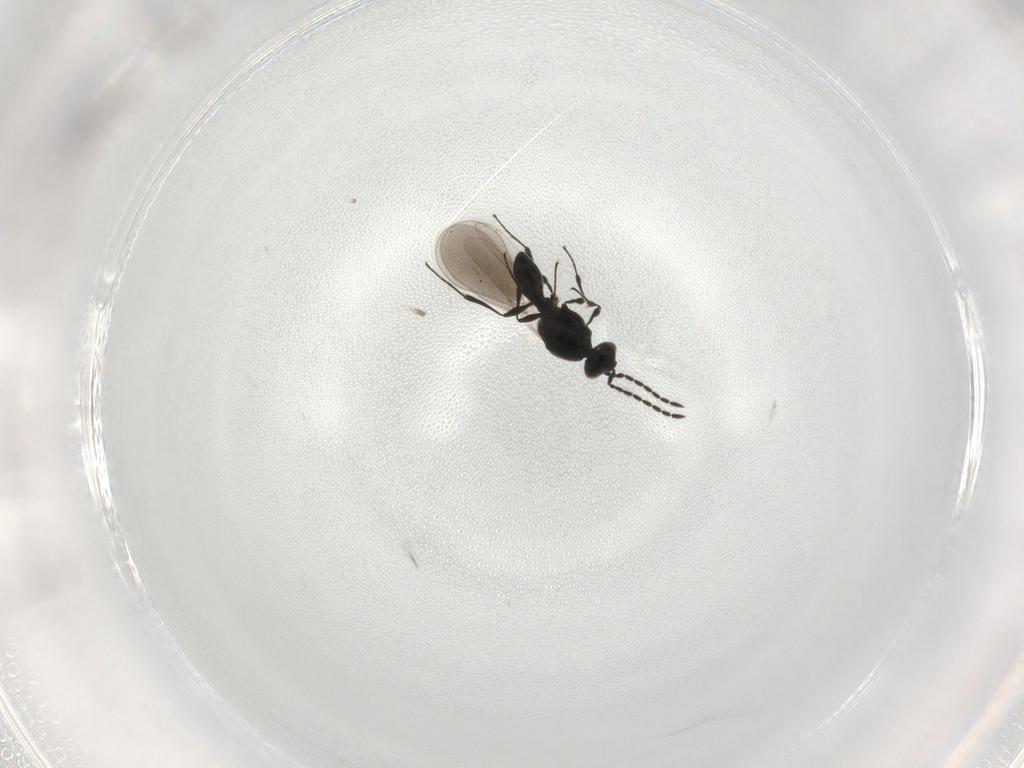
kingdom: Animalia
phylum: Arthropoda
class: Insecta
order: Hymenoptera
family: Platygastridae
